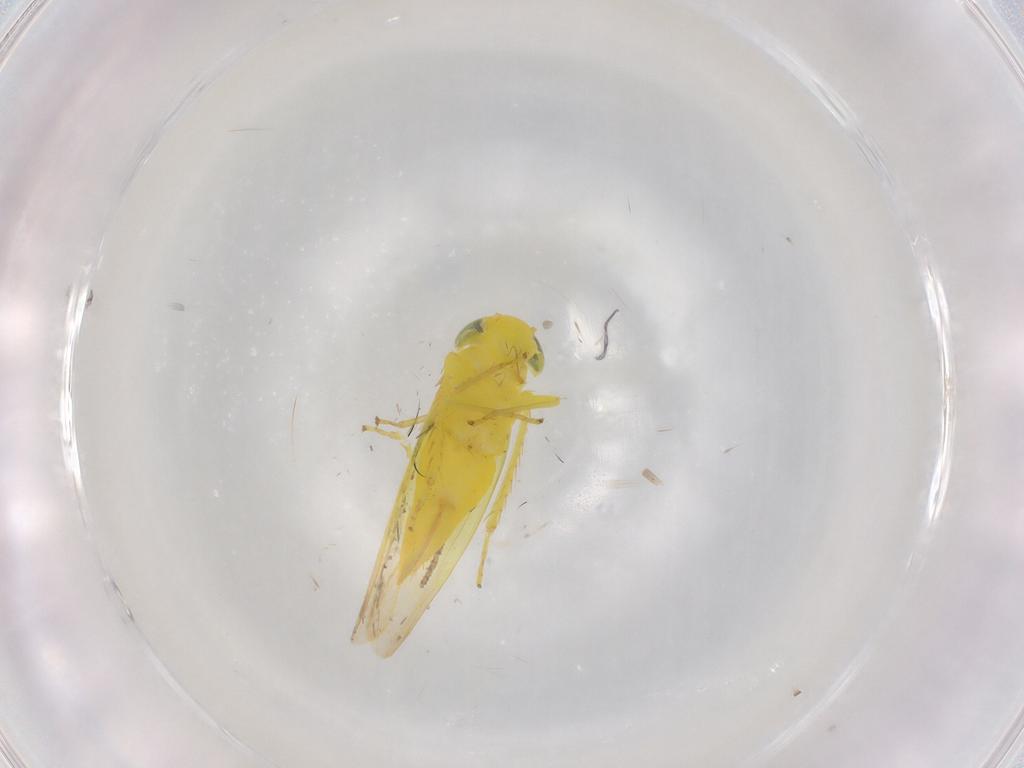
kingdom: Animalia
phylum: Arthropoda
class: Insecta
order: Hemiptera
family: Cicadellidae
